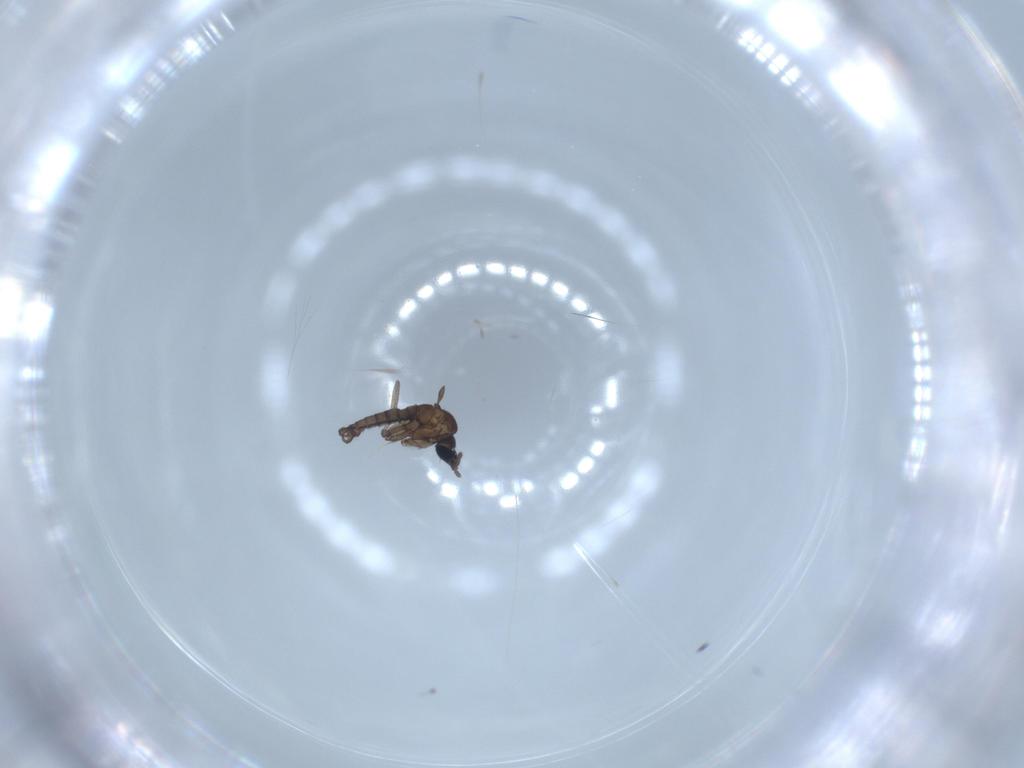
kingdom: Animalia
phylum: Arthropoda
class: Insecta
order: Diptera
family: Sciaridae
